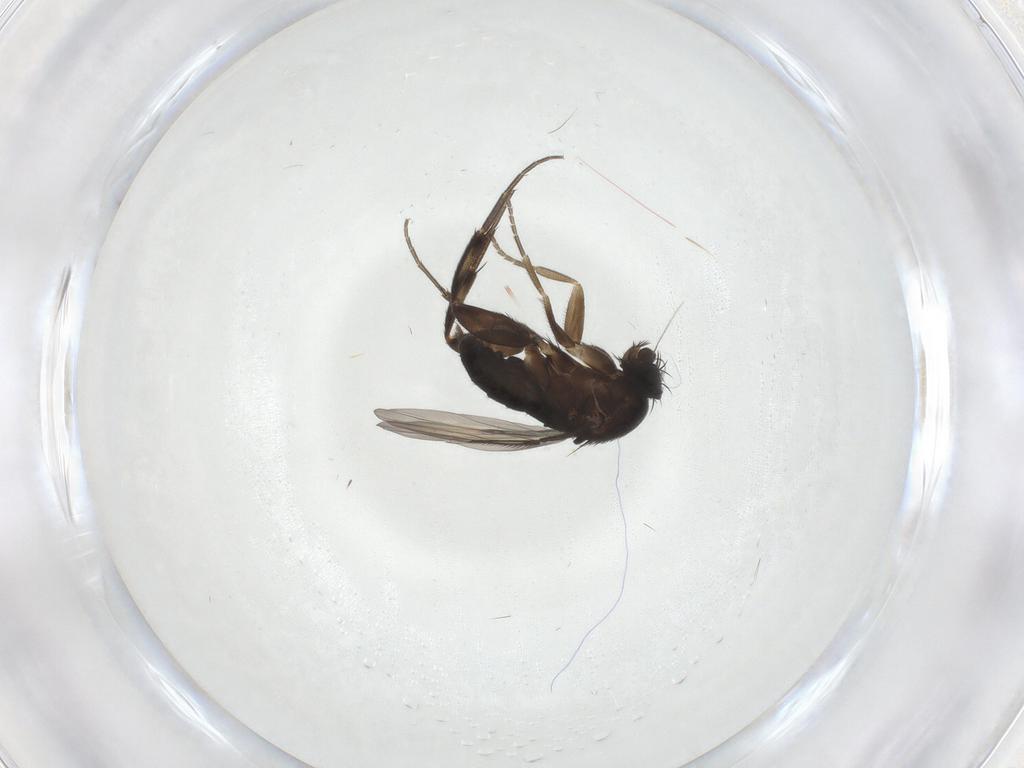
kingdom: Animalia
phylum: Arthropoda
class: Insecta
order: Diptera
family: Phoridae
